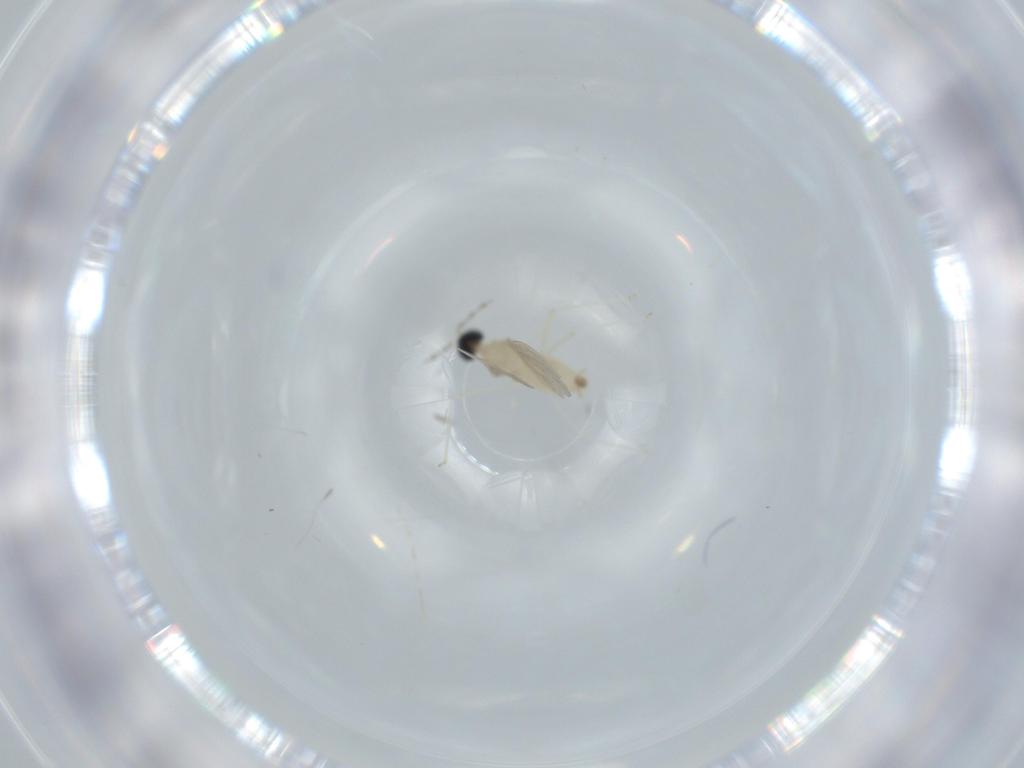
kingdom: Animalia
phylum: Arthropoda
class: Insecta
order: Diptera
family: Cecidomyiidae
